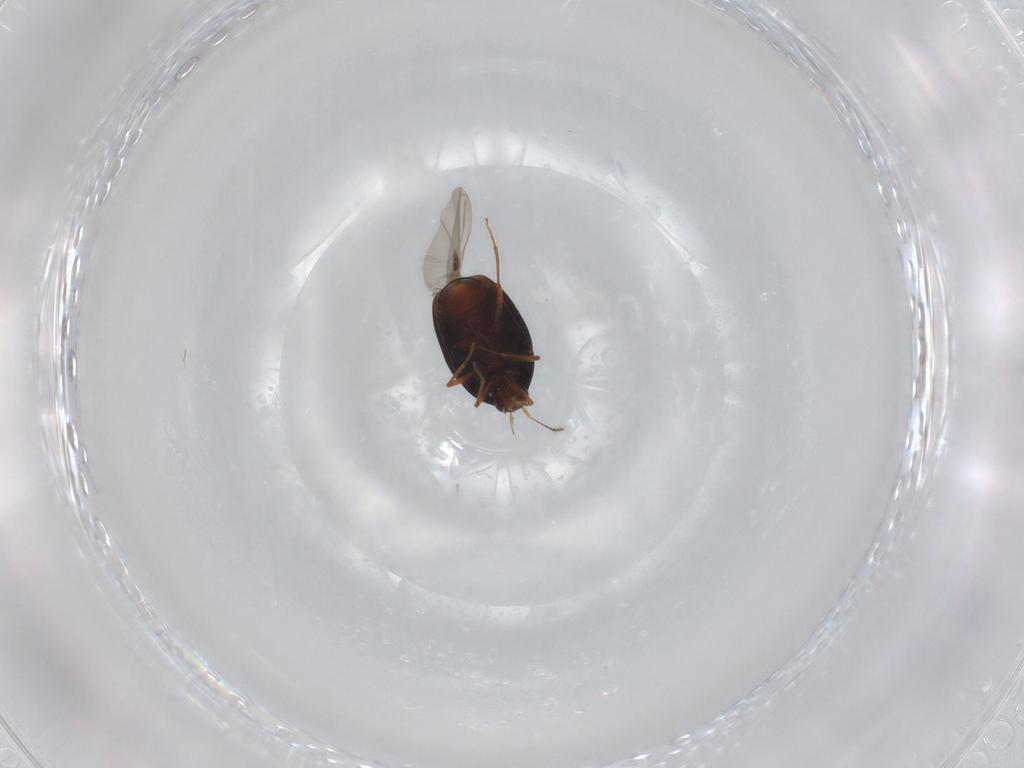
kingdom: Animalia
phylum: Arthropoda
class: Insecta
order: Coleoptera
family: Staphylinidae
